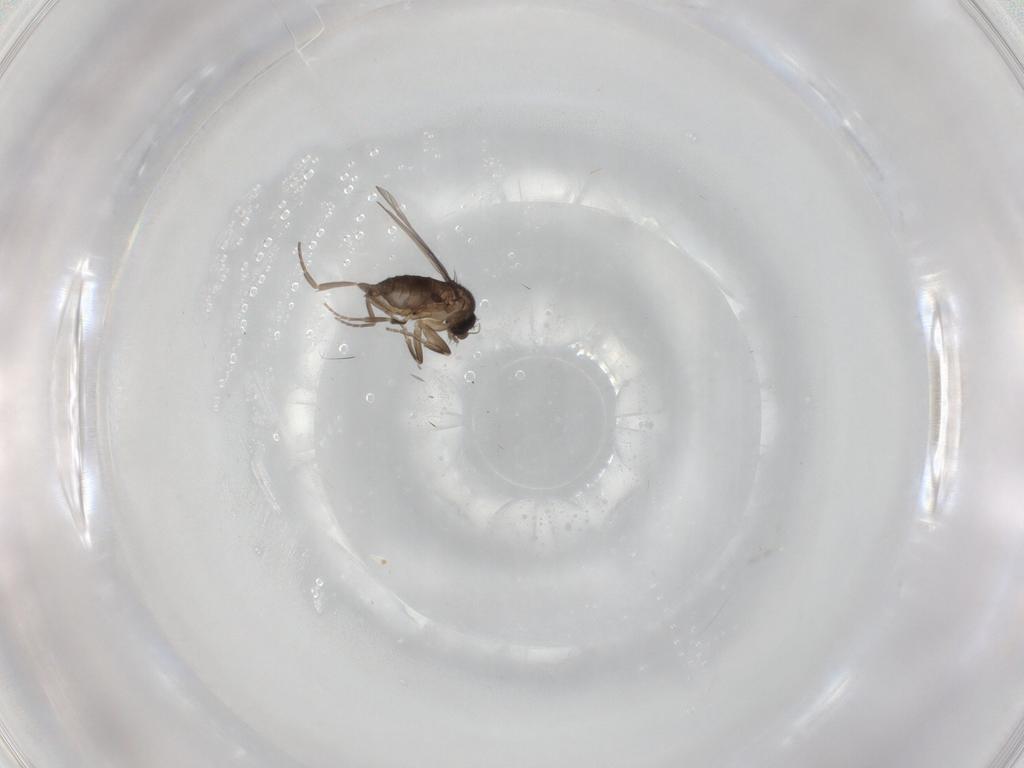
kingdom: Animalia
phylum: Arthropoda
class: Insecta
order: Diptera
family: Phoridae
